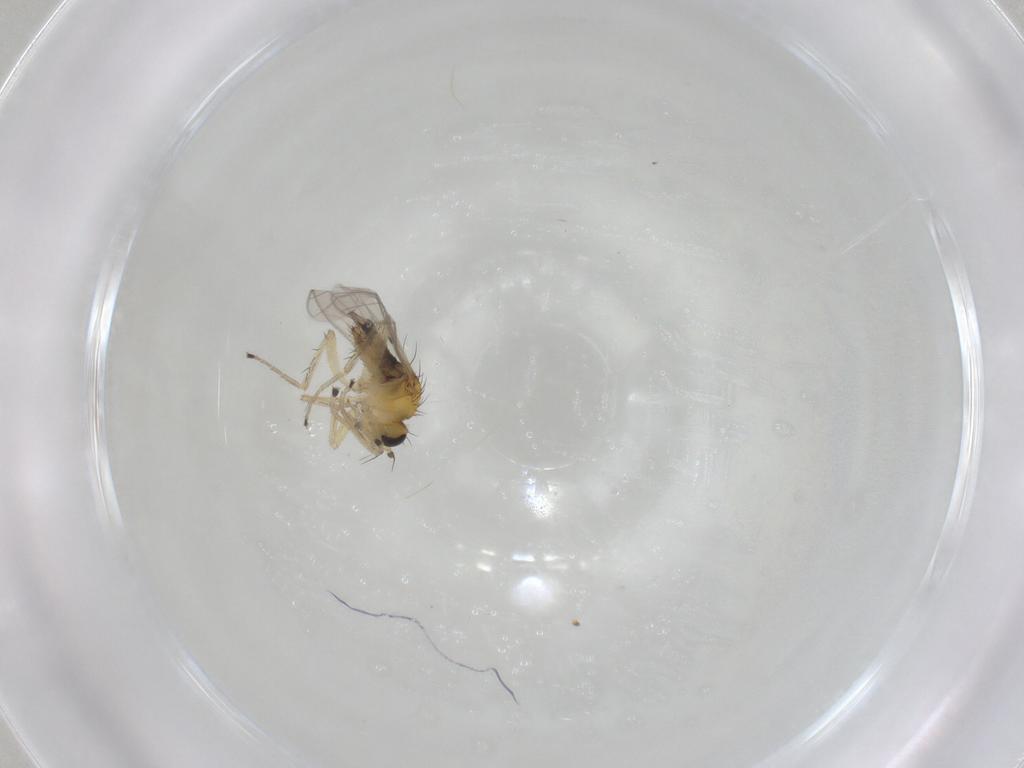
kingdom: Animalia
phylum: Arthropoda
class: Insecta
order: Diptera
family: Hybotidae
